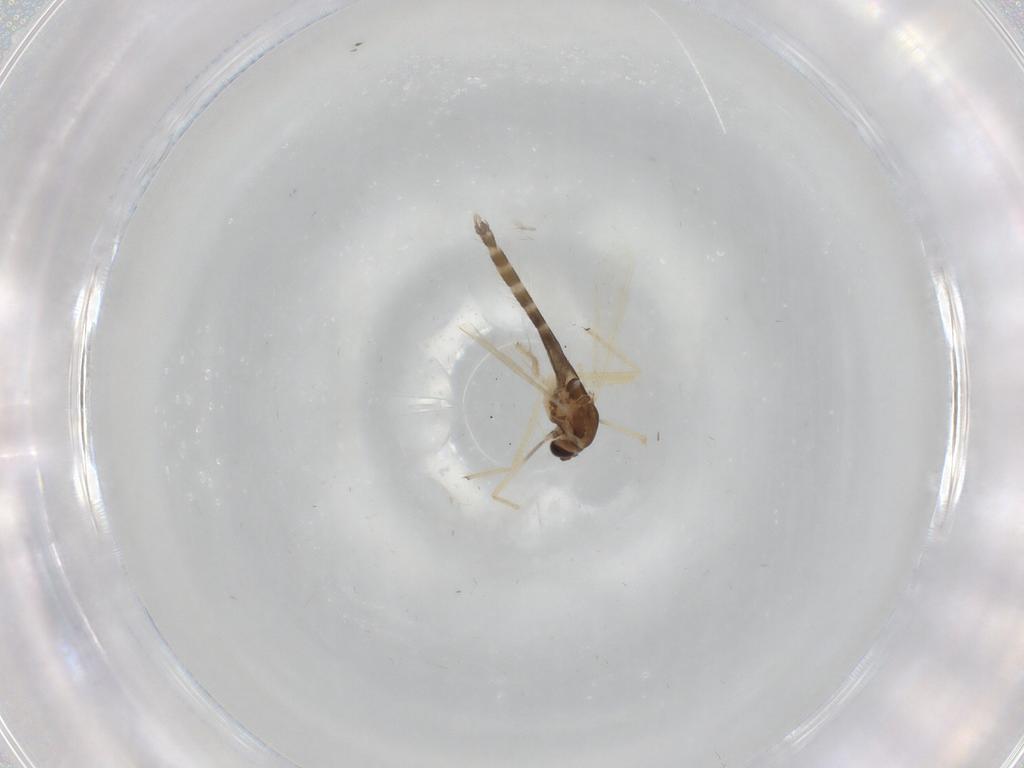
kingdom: Animalia
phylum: Arthropoda
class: Insecta
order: Diptera
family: Chironomidae
